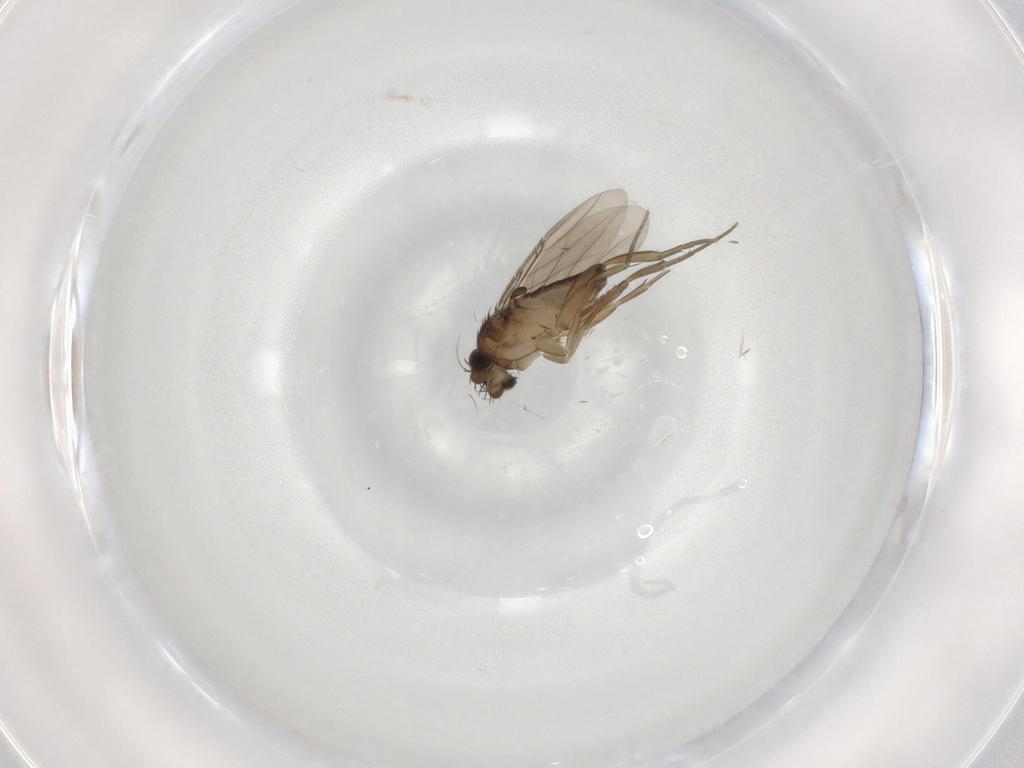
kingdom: Animalia
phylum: Arthropoda
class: Insecta
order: Diptera
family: Phoridae
